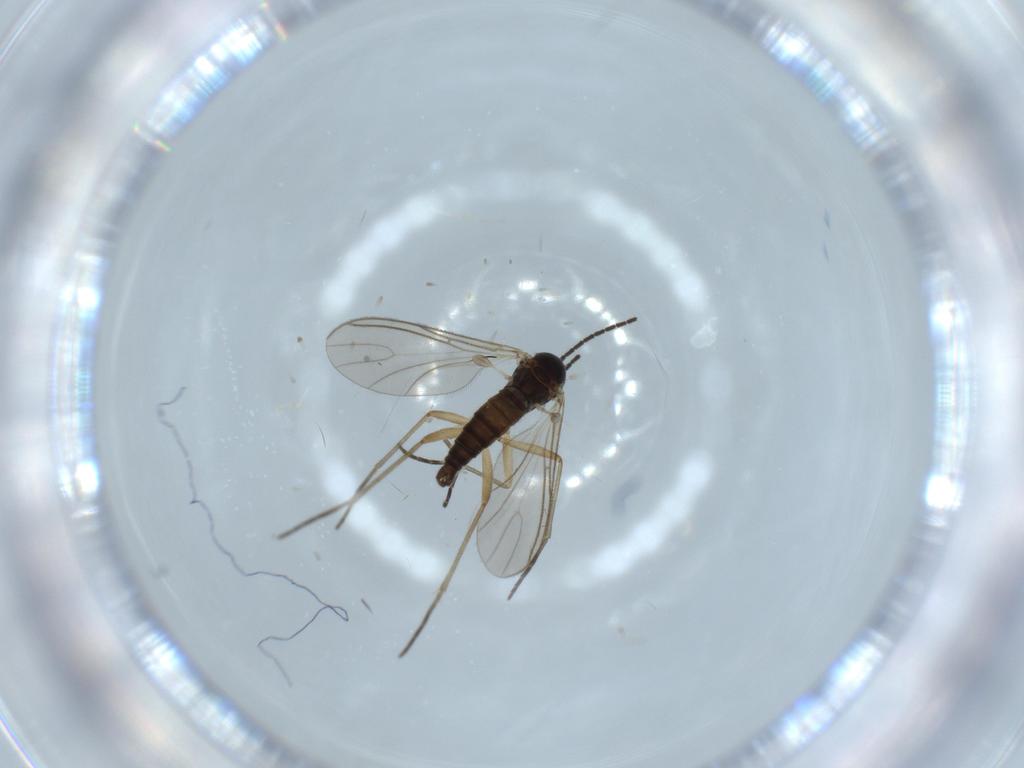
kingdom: Animalia
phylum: Arthropoda
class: Insecta
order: Diptera
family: Sciaridae
